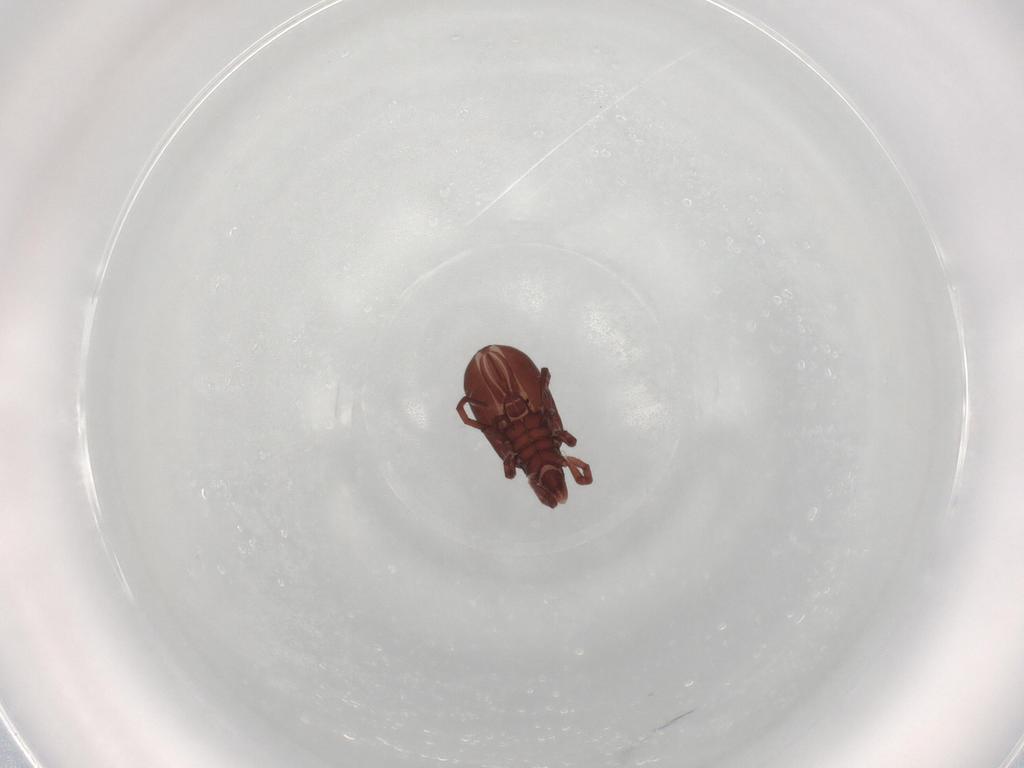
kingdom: Animalia
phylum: Arthropoda
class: Arachnida
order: Sarcoptiformes
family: Perlohmanniidae
